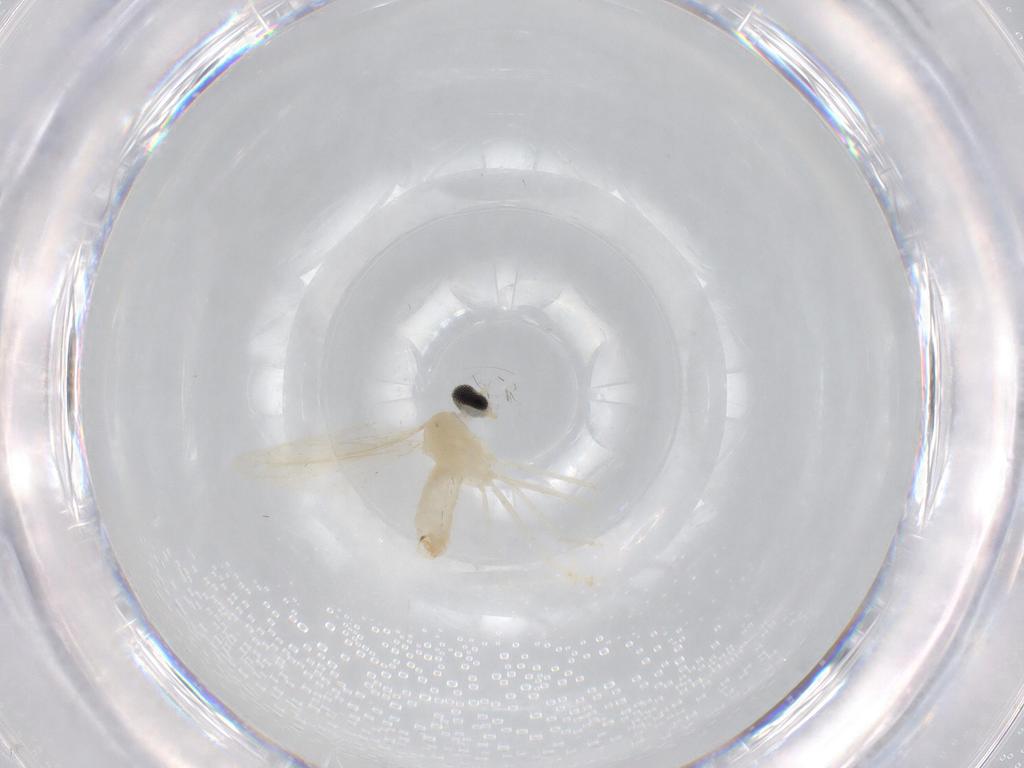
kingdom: Animalia
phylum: Arthropoda
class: Insecta
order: Diptera
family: Cecidomyiidae
